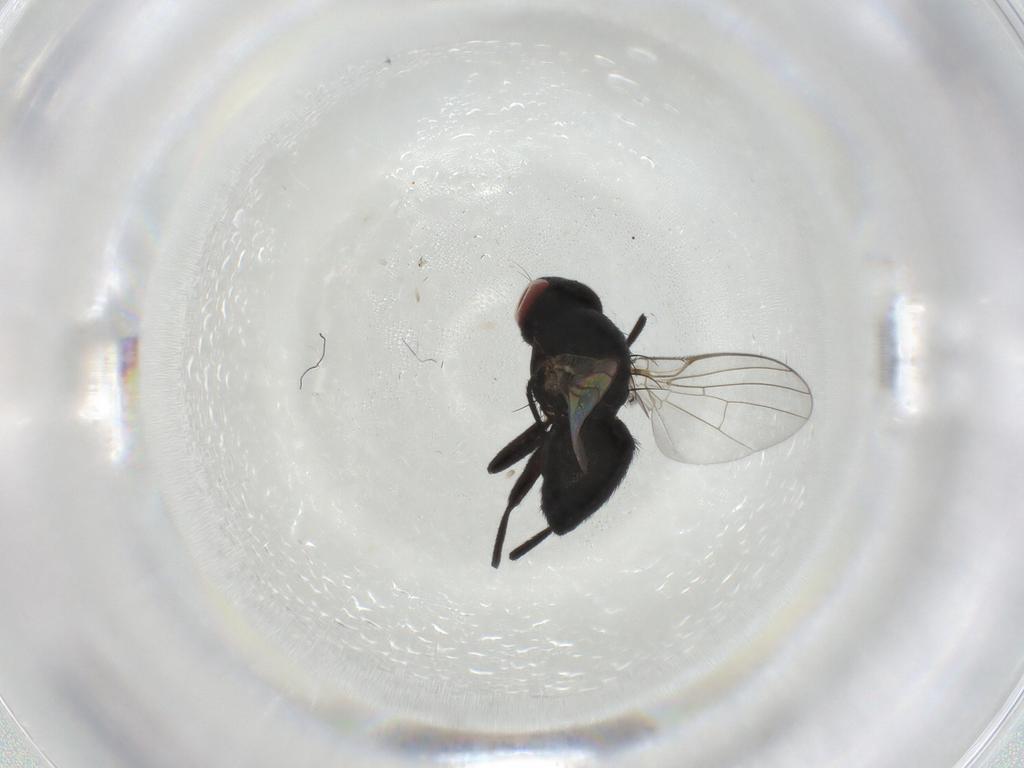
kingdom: Animalia
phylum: Arthropoda
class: Insecta
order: Diptera
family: Agromyzidae
